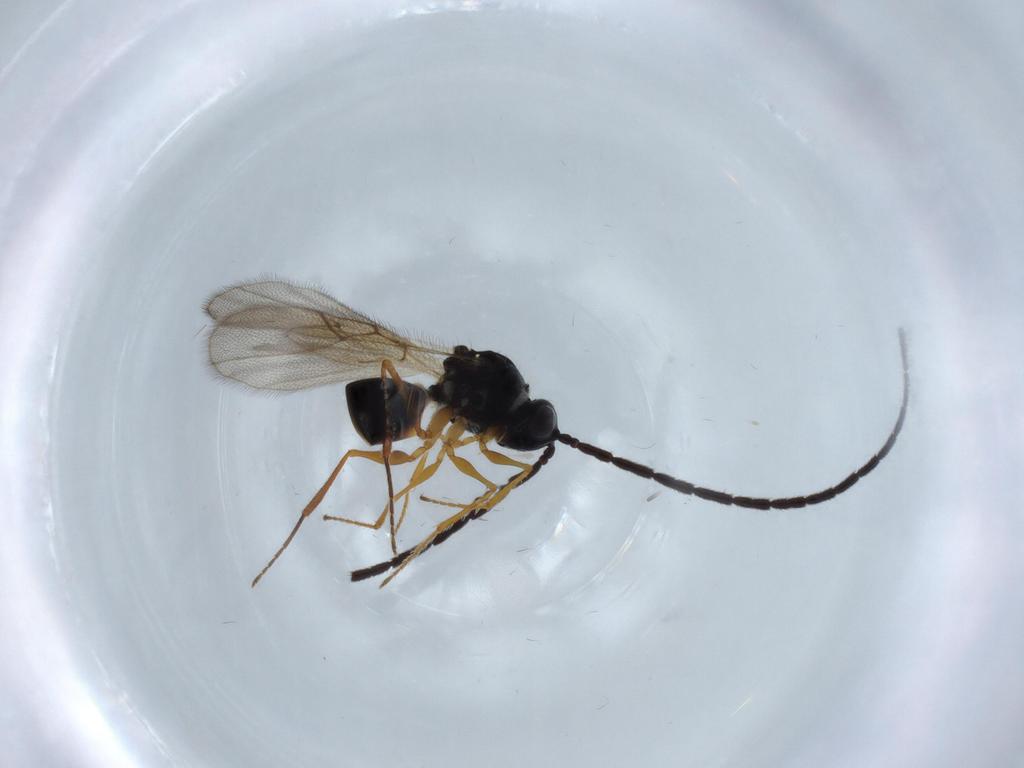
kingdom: Animalia
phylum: Arthropoda
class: Insecta
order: Hymenoptera
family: Figitidae
